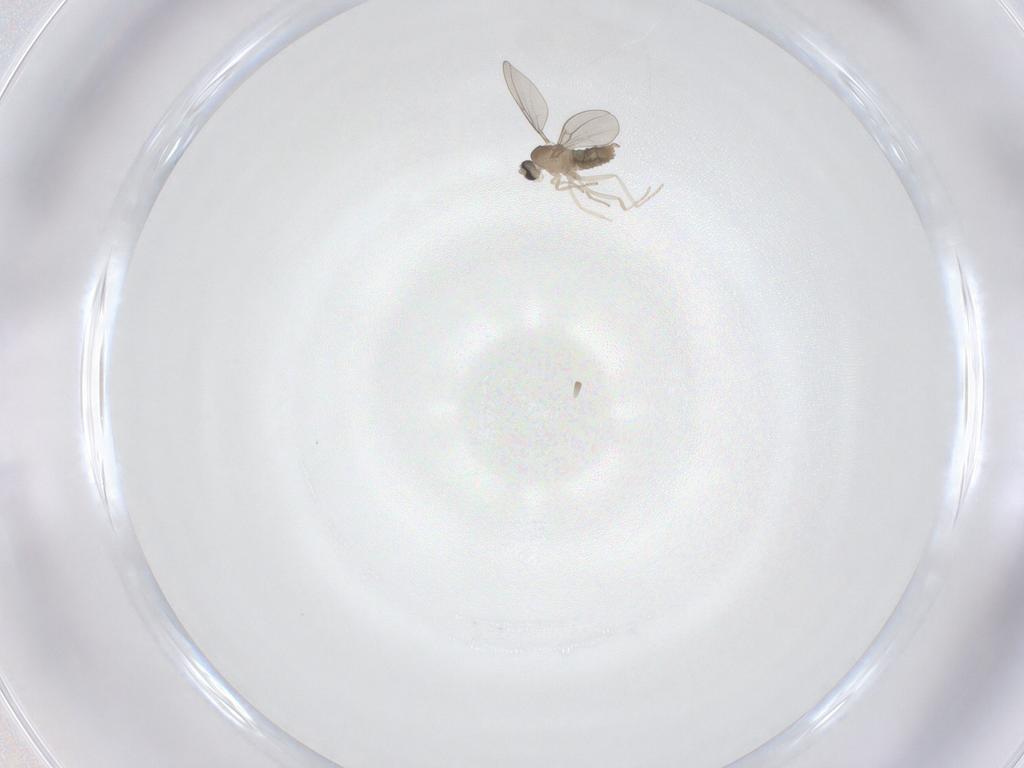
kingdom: Animalia
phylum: Arthropoda
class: Insecta
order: Diptera
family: Cecidomyiidae
